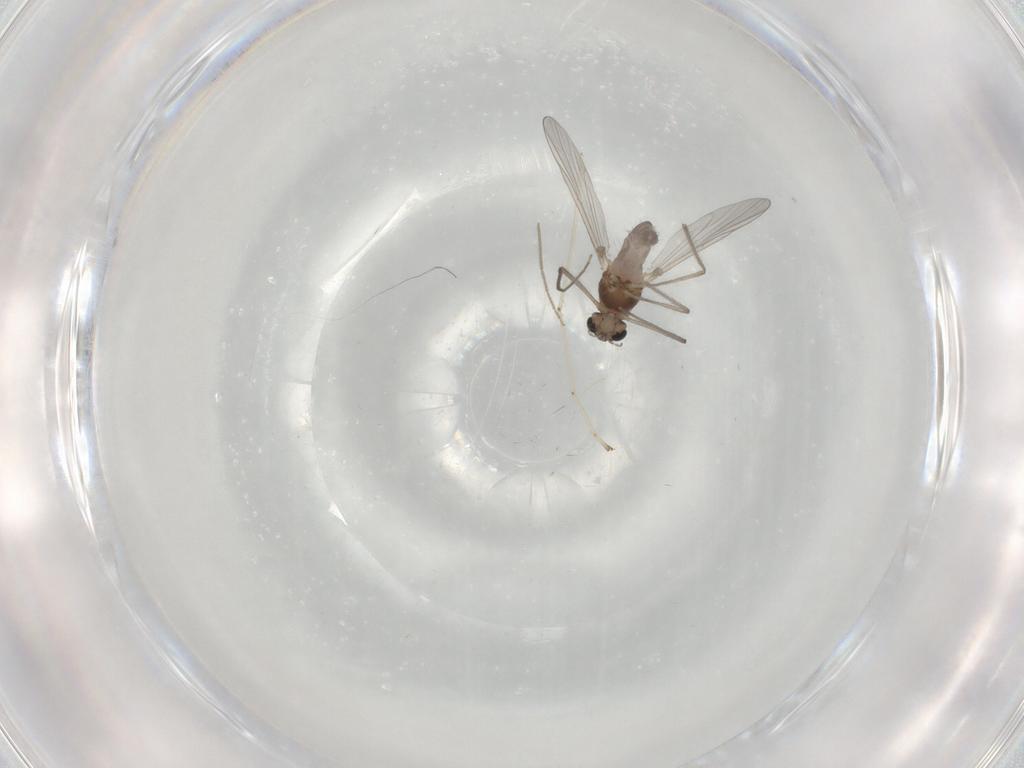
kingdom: Animalia
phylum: Arthropoda
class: Insecta
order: Diptera
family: Chironomidae
